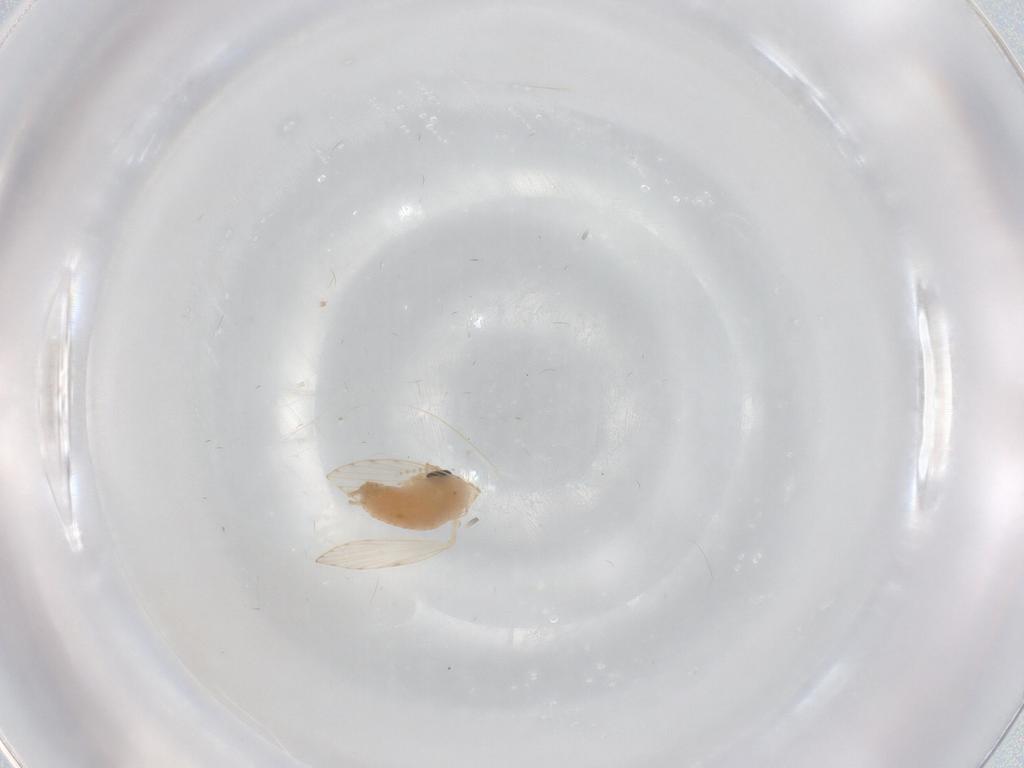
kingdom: Animalia
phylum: Arthropoda
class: Insecta
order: Diptera
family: Psychodidae
